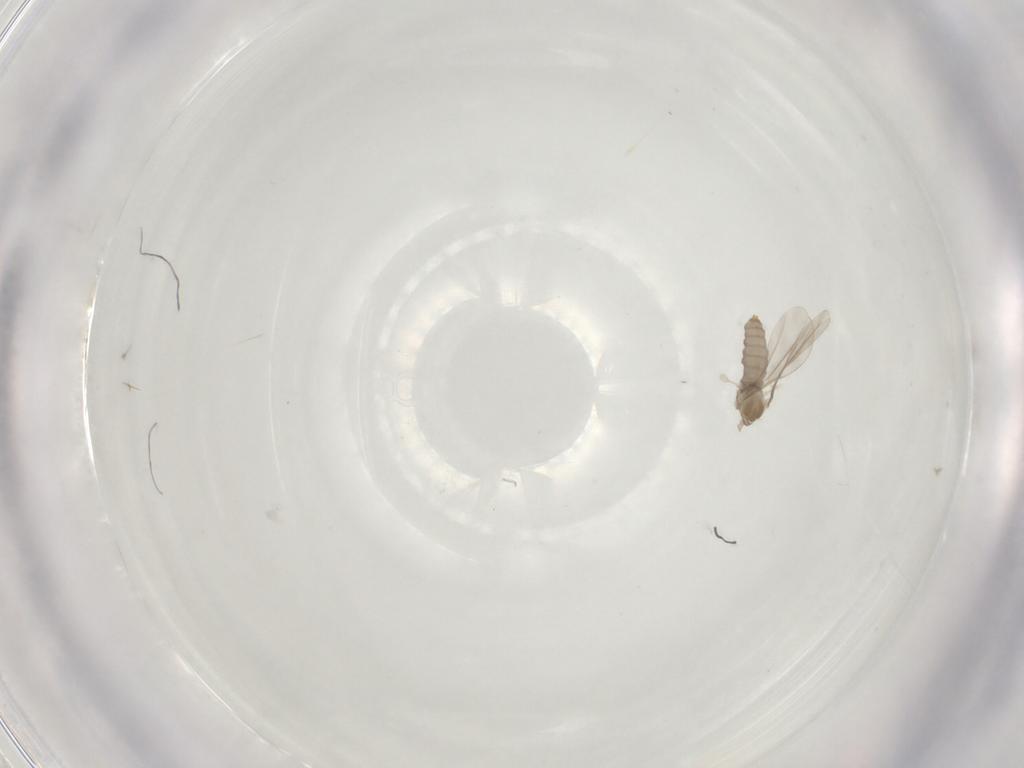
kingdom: Animalia
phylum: Arthropoda
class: Insecta
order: Diptera
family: Cecidomyiidae
